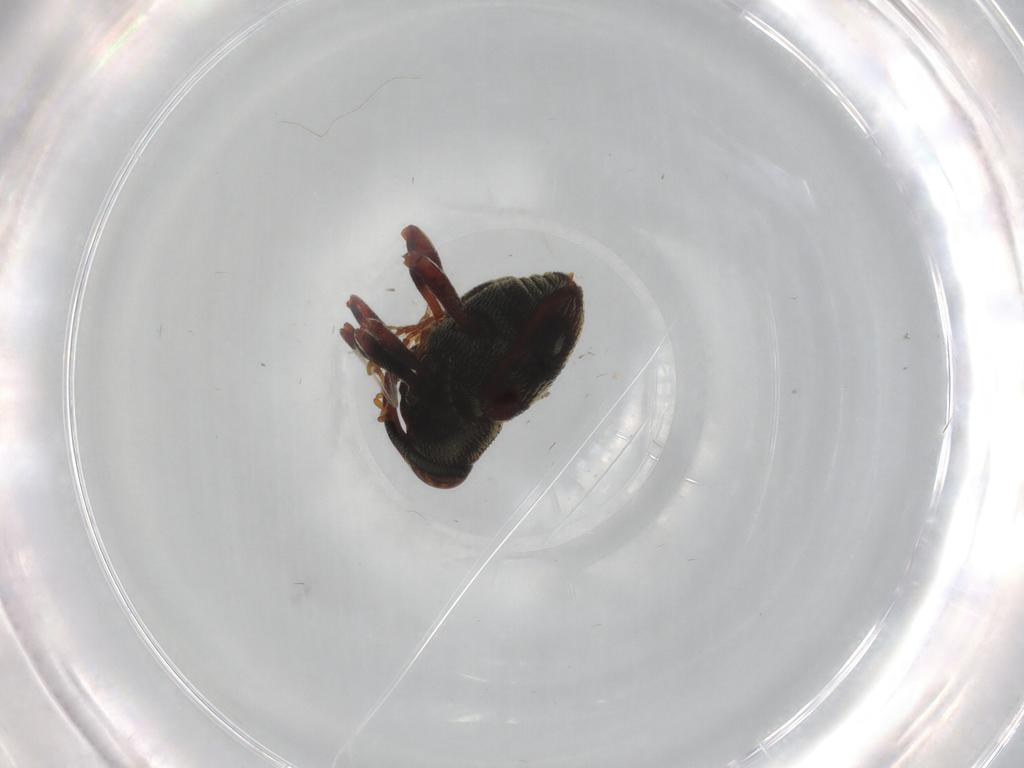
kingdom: Animalia
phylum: Arthropoda
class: Insecta
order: Coleoptera
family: Curculionidae
